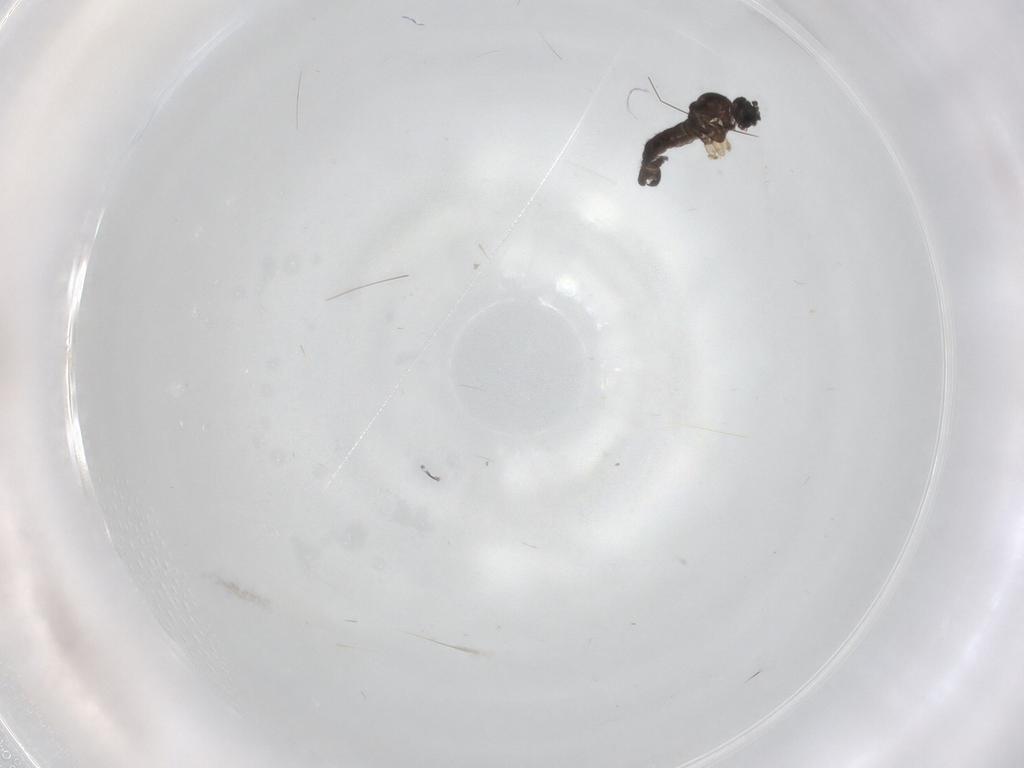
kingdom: Animalia
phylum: Arthropoda
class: Insecta
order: Diptera
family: Sciaridae
